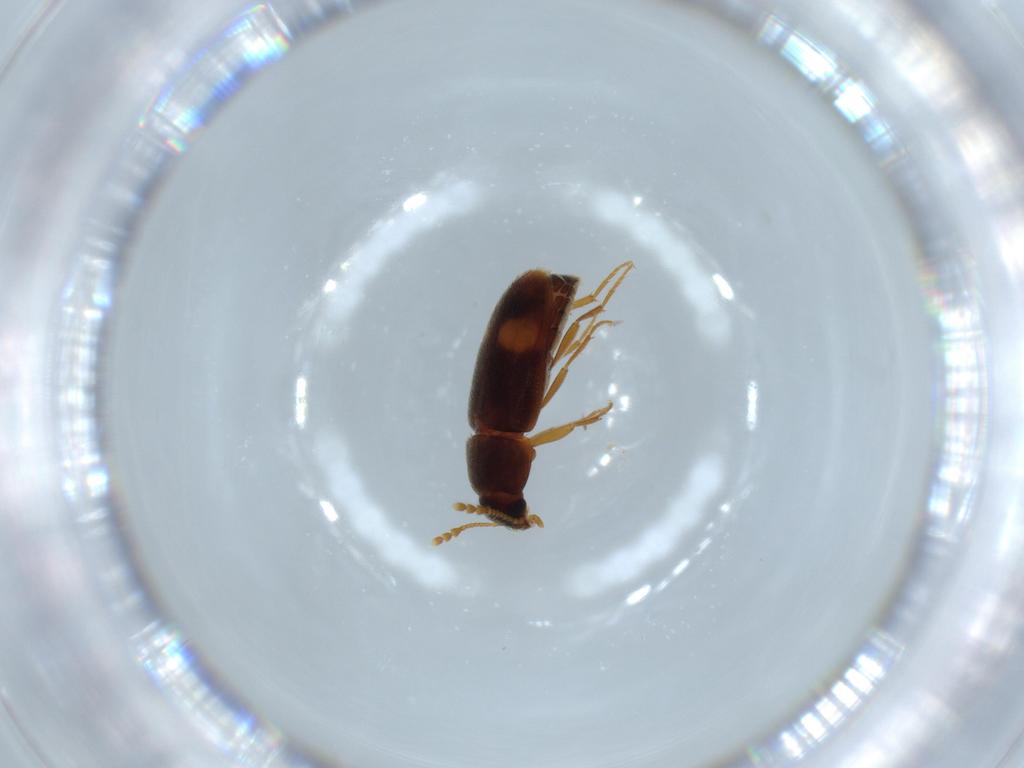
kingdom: Animalia
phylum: Arthropoda
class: Insecta
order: Coleoptera
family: Mycetophagidae
